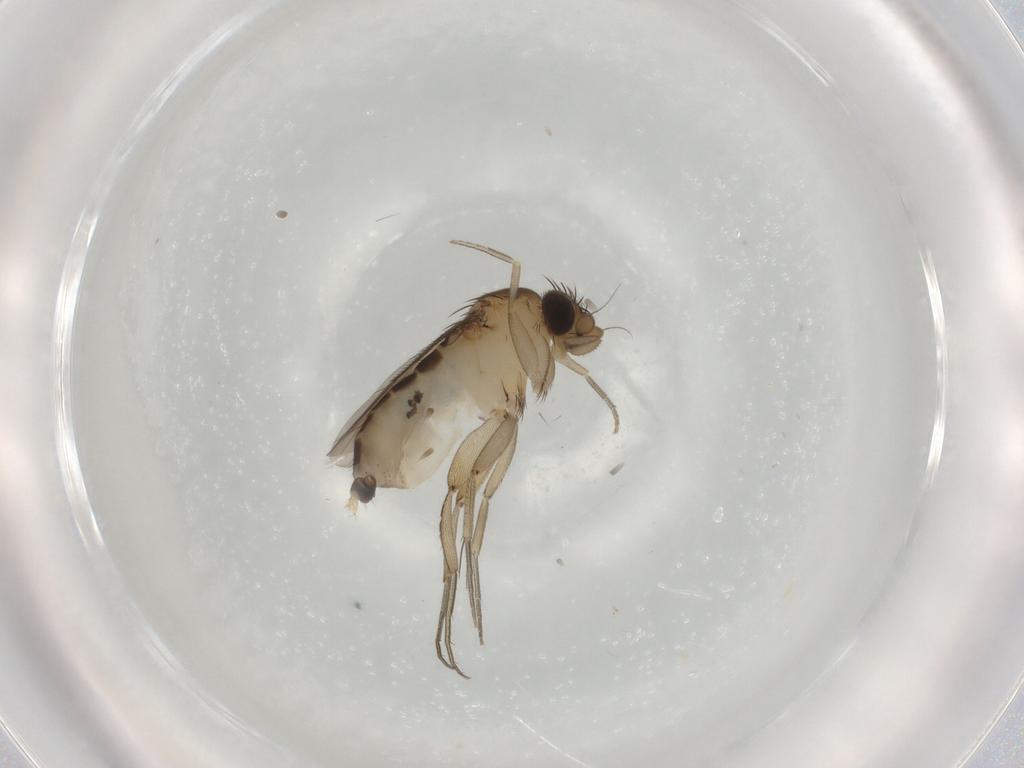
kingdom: Animalia
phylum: Arthropoda
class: Insecta
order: Diptera
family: Phoridae
